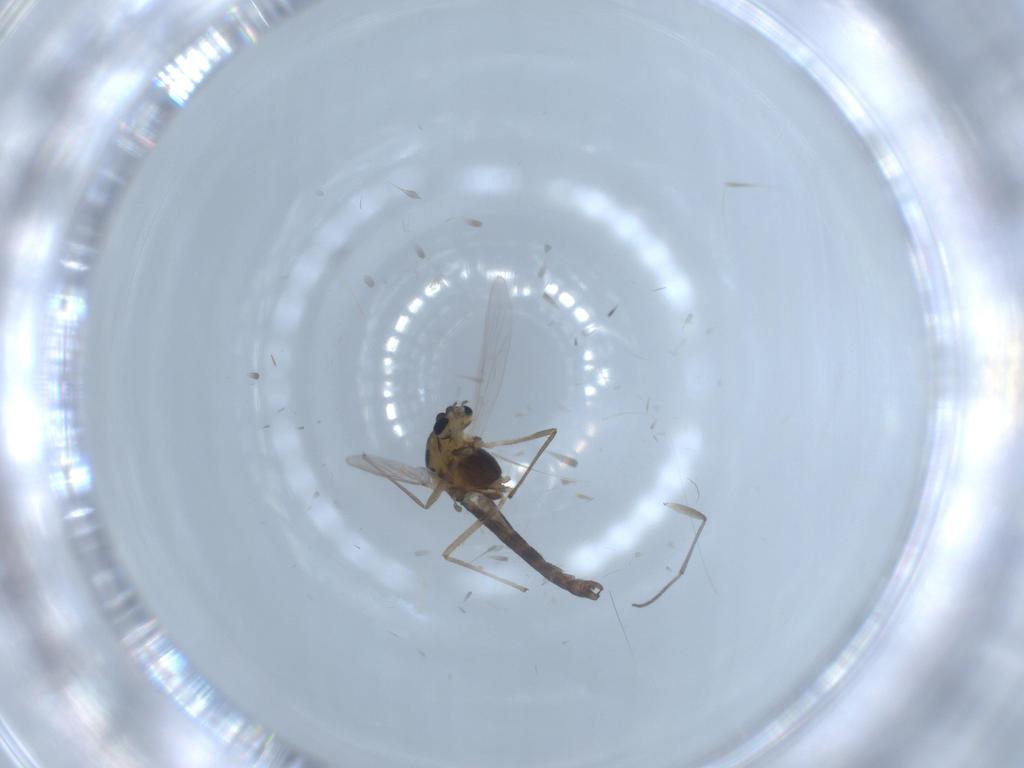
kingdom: Animalia
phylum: Arthropoda
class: Insecta
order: Diptera
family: Chironomidae
